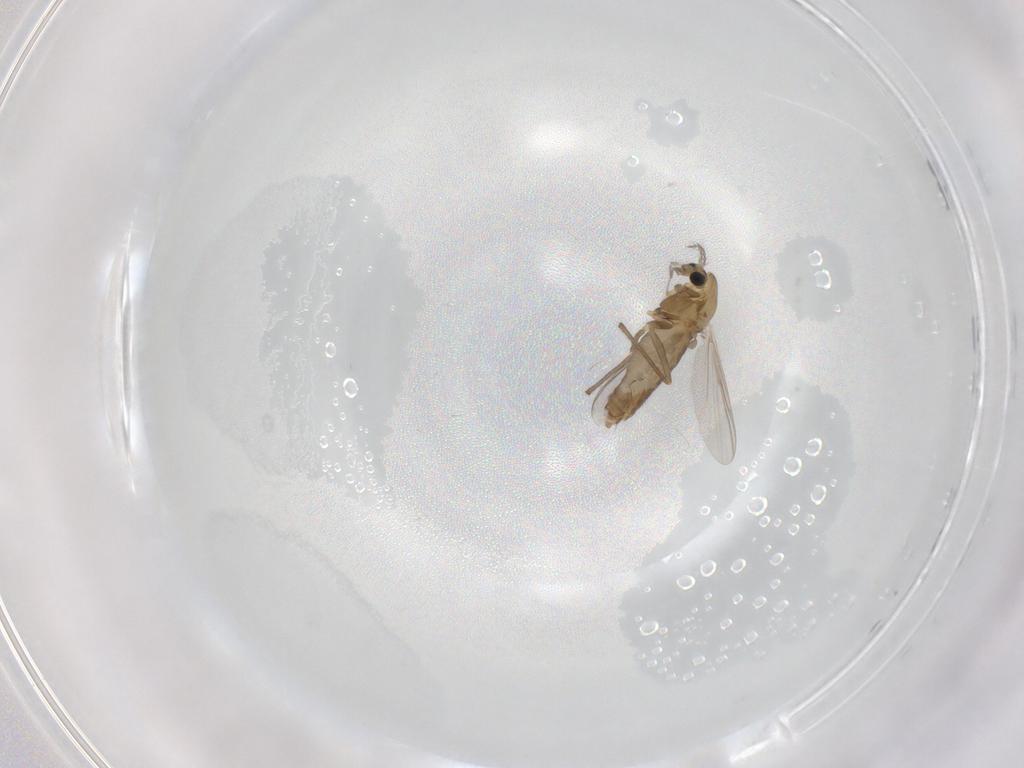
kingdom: Animalia
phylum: Arthropoda
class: Insecta
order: Diptera
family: Chironomidae
